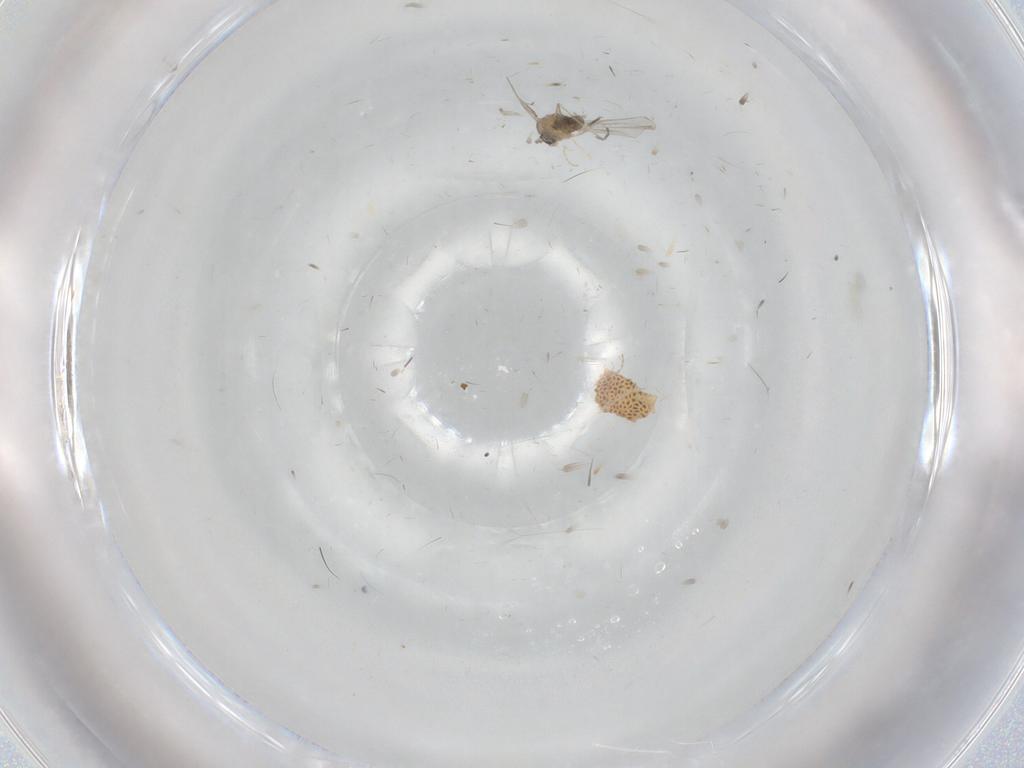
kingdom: Animalia
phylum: Arthropoda
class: Insecta
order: Diptera
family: Cecidomyiidae
